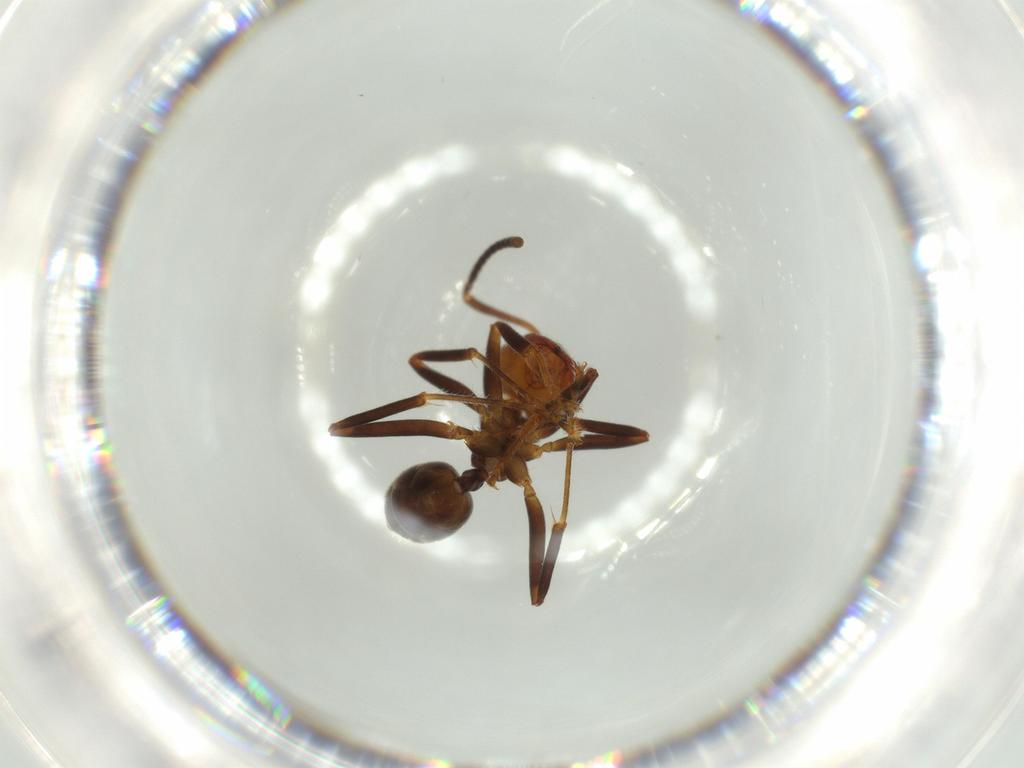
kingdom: Animalia
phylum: Arthropoda
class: Insecta
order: Hymenoptera
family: Formicidae
